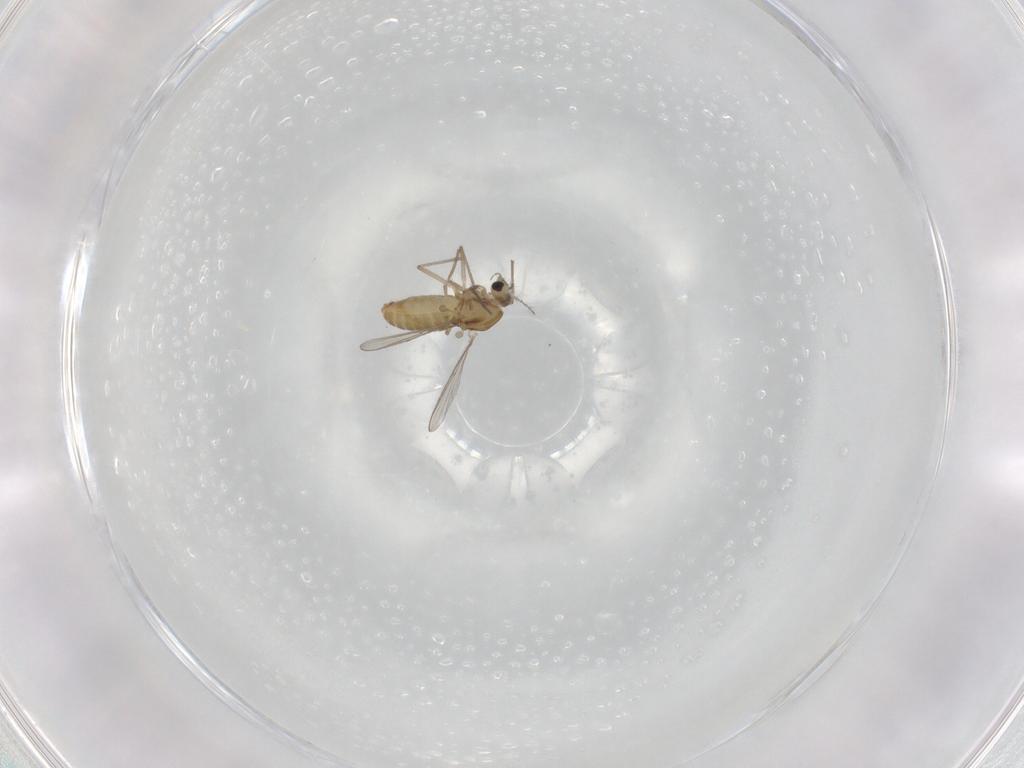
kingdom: Animalia
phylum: Arthropoda
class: Insecta
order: Diptera
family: Chironomidae
